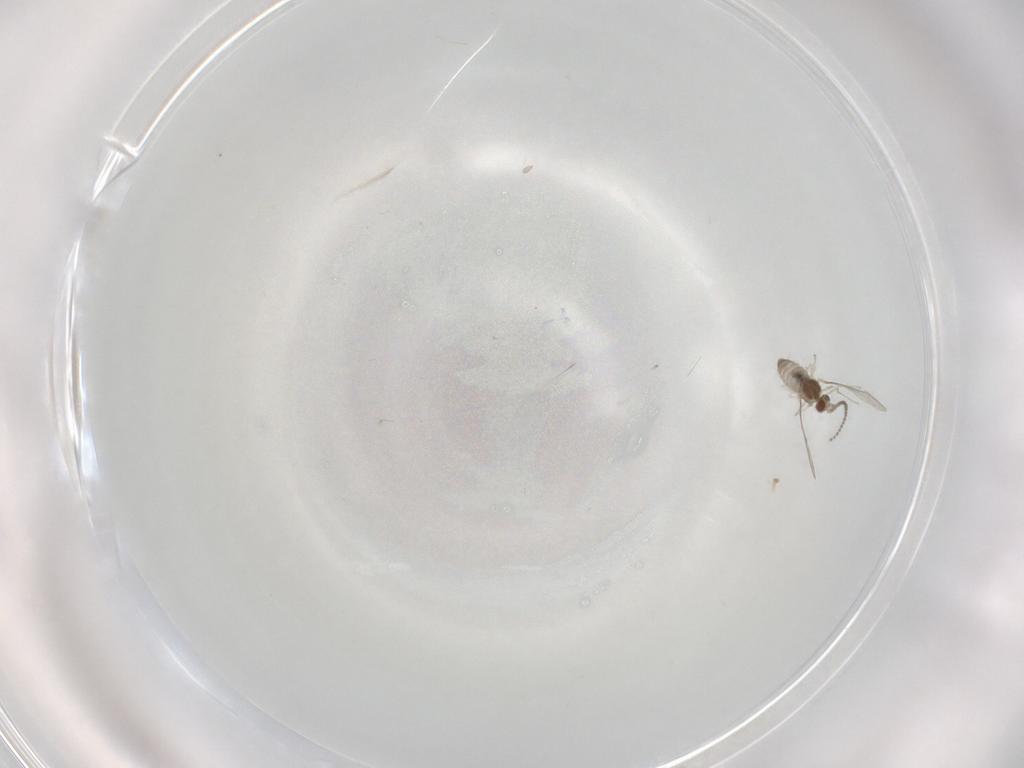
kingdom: Animalia
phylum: Arthropoda
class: Insecta
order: Diptera
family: Cecidomyiidae
